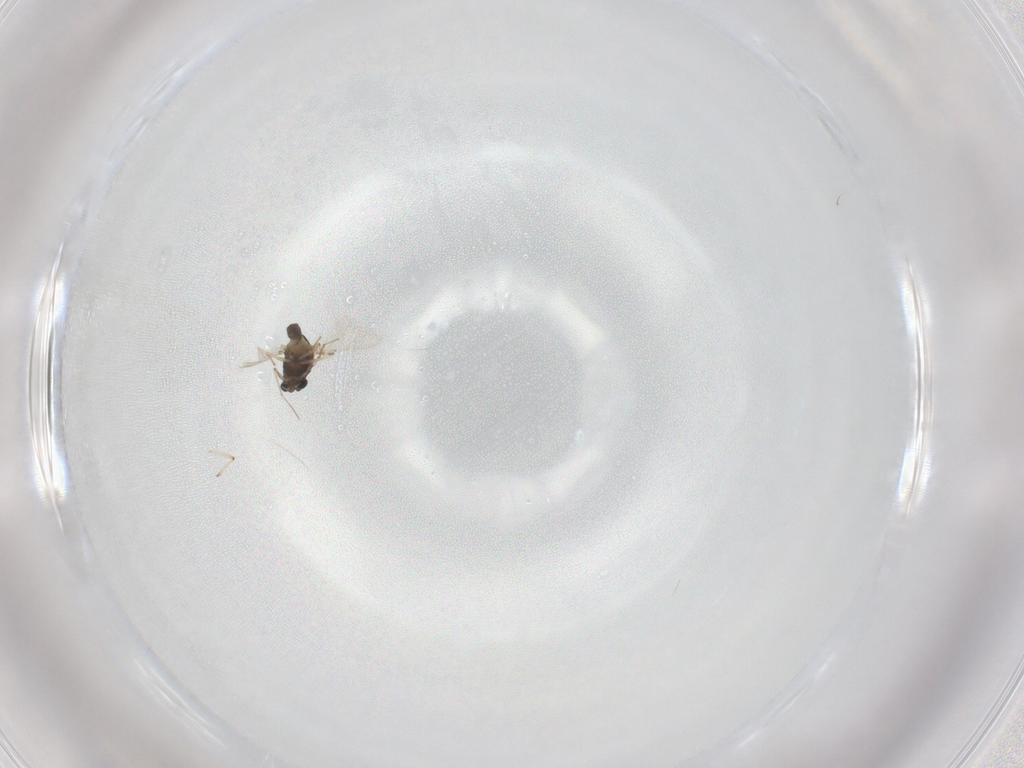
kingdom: Animalia
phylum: Arthropoda
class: Insecta
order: Diptera
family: Chironomidae
